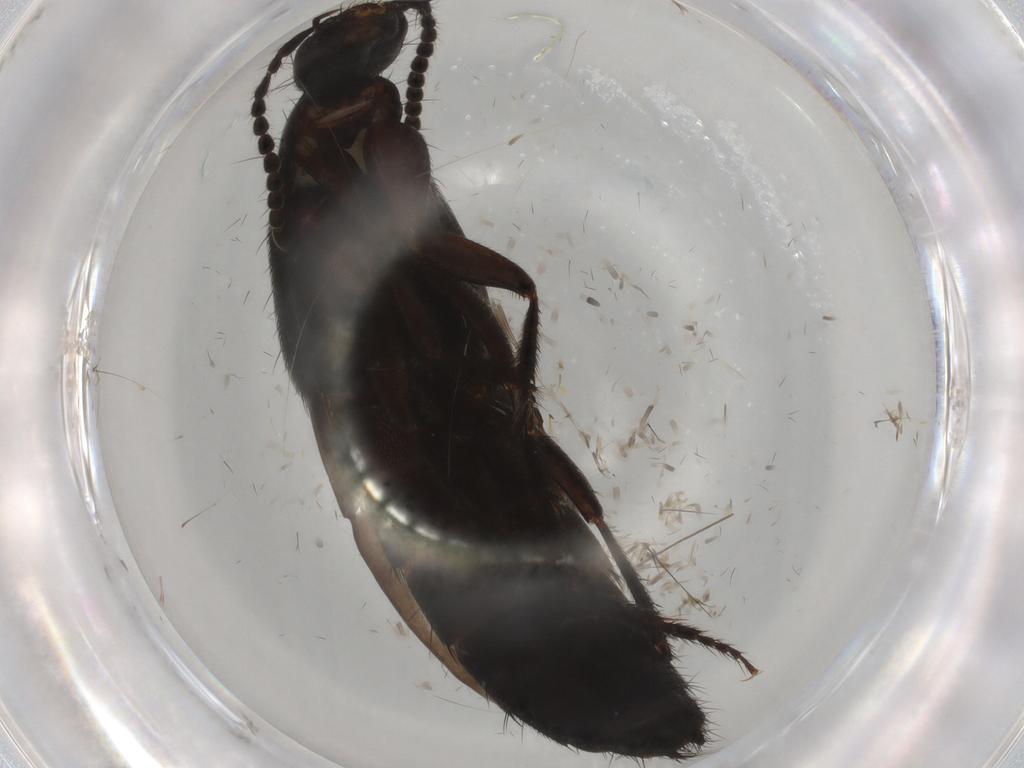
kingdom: Animalia
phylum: Arthropoda
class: Insecta
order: Coleoptera
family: Staphylinidae
